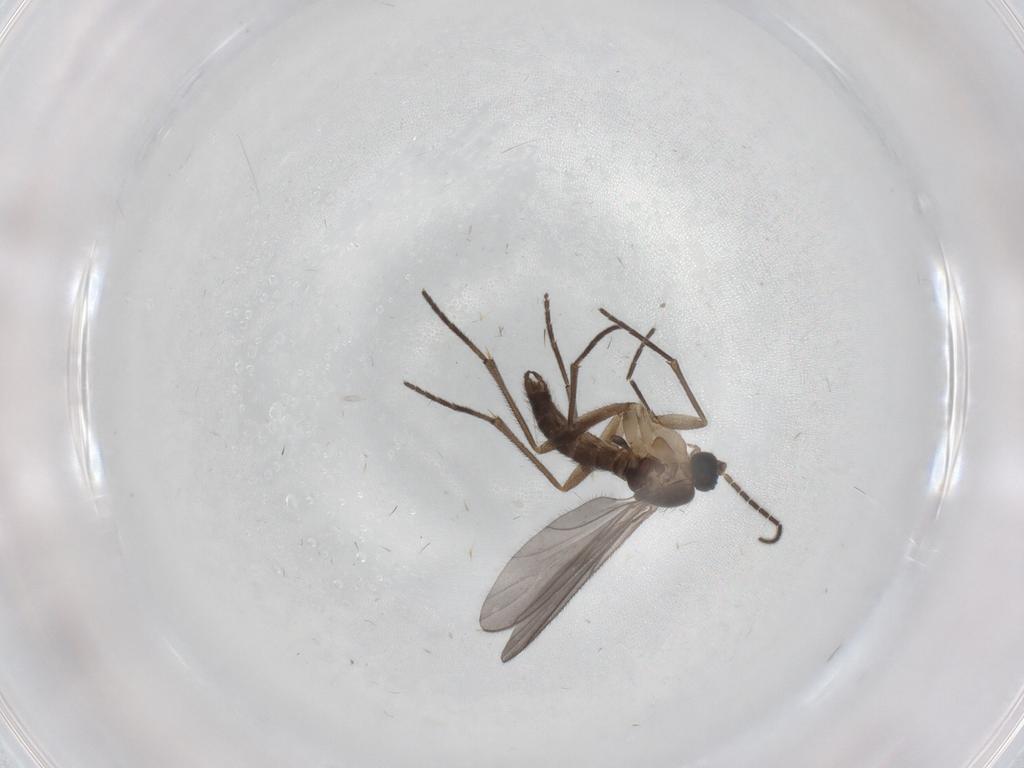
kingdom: Animalia
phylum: Arthropoda
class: Insecta
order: Diptera
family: Sciaridae
